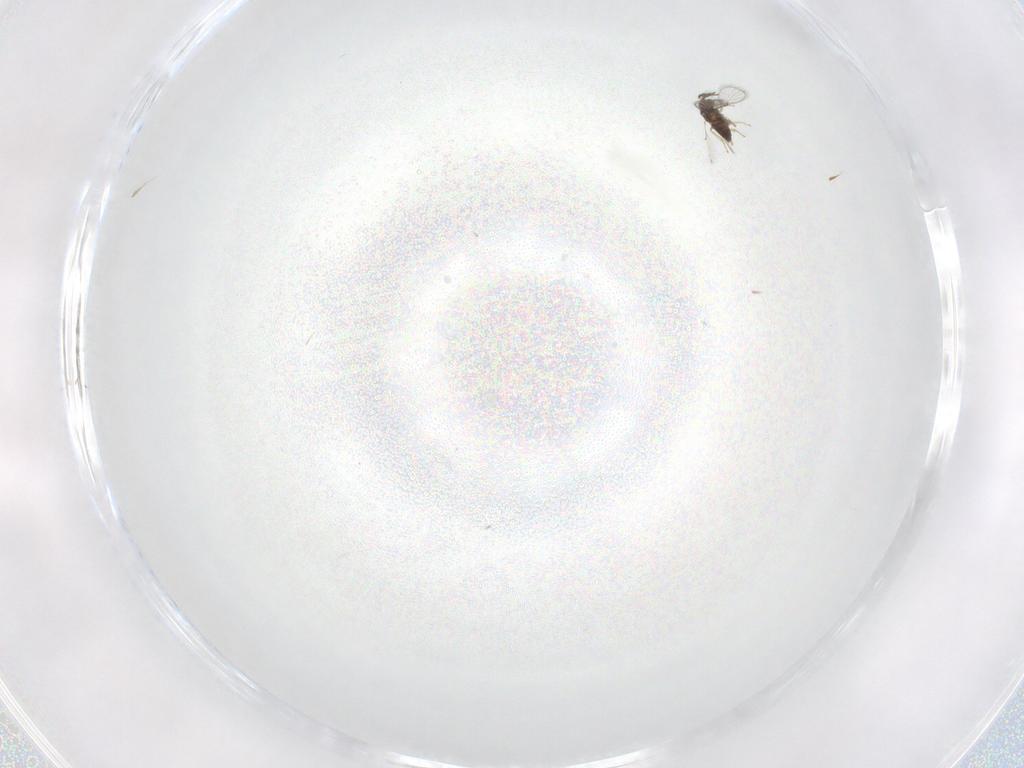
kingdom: Animalia
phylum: Arthropoda
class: Insecta
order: Hymenoptera
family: Trichogrammatidae
